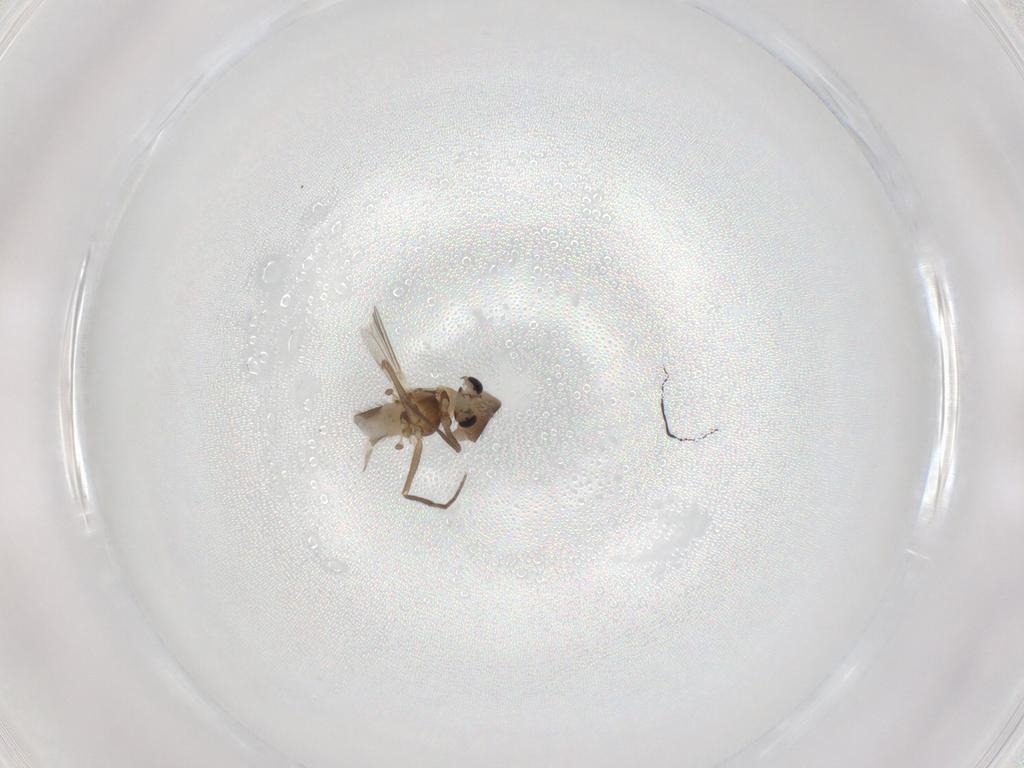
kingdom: Animalia
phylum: Arthropoda
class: Insecta
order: Diptera
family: Chironomidae
